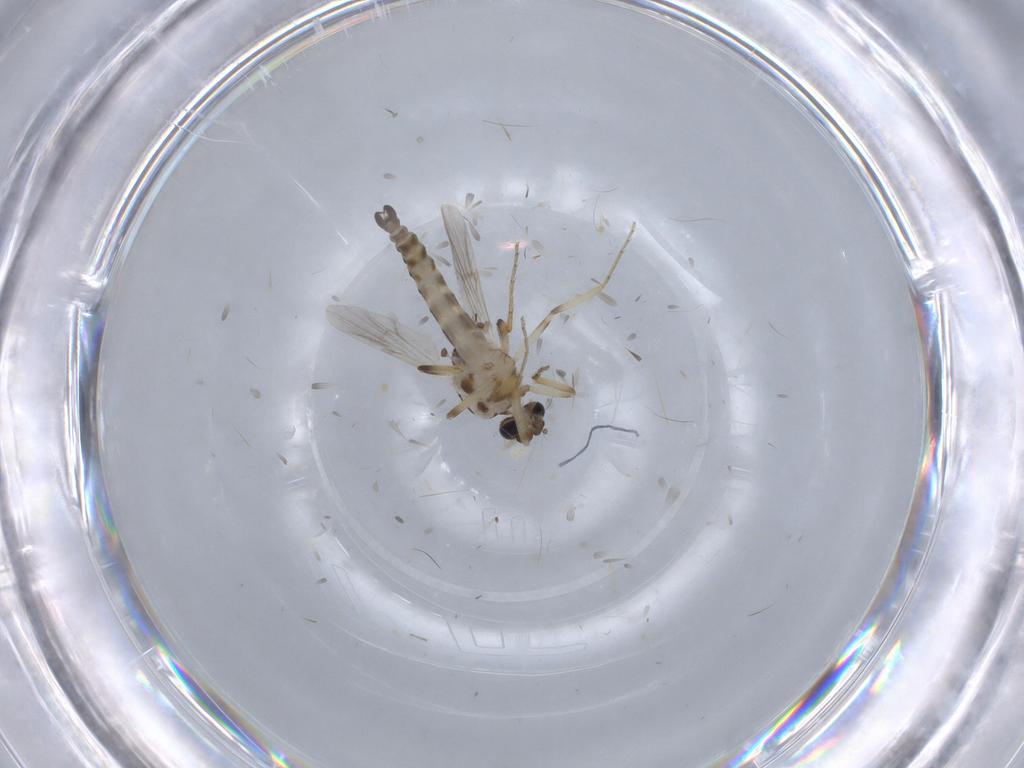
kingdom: Animalia
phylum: Arthropoda
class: Insecta
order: Diptera
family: Ceratopogonidae
